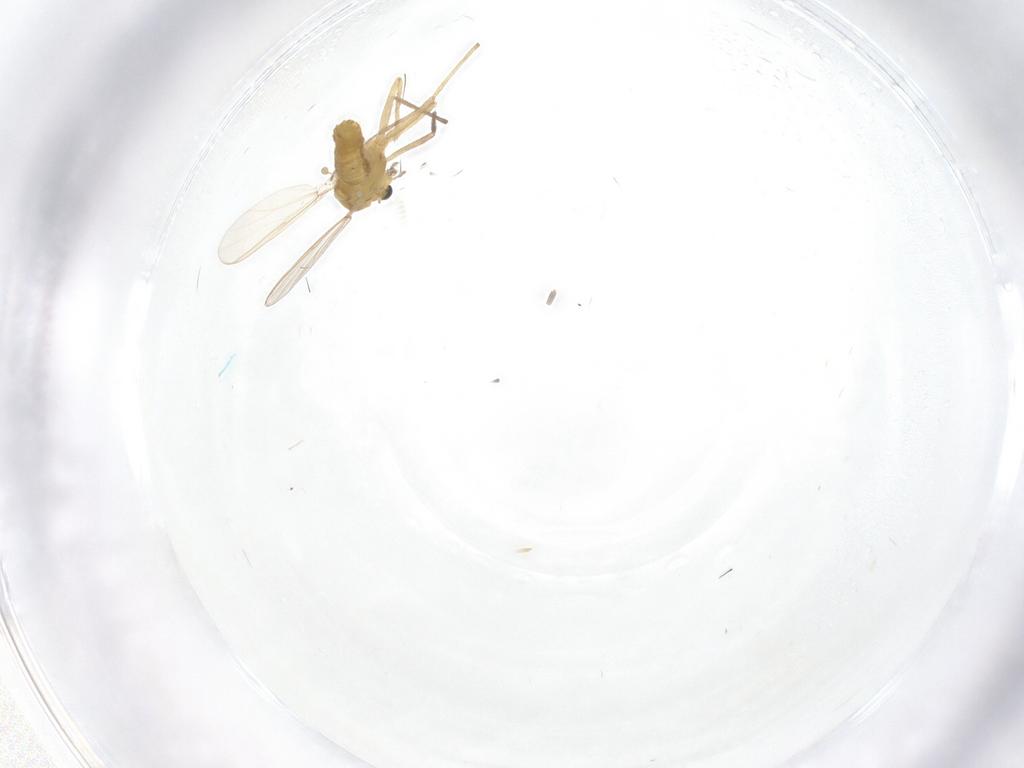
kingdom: Animalia
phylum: Arthropoda
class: Insecta
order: Diptera
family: Chironomidae
